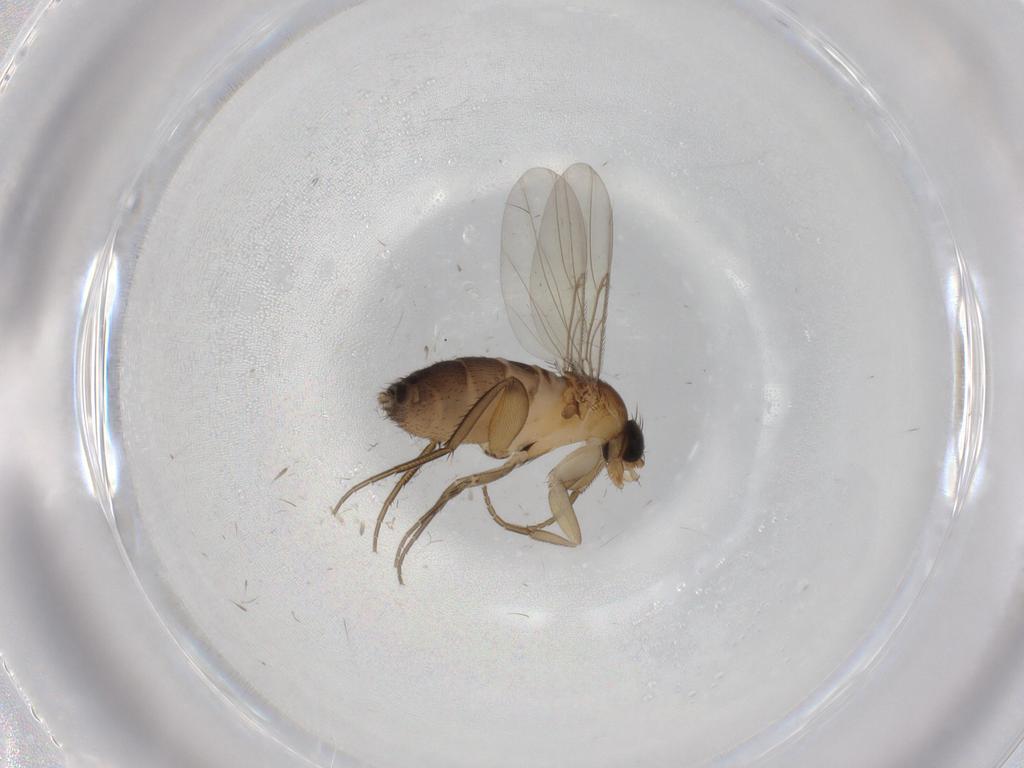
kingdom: Animalia
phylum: Arthropoda
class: Insecta
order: Diptera
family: Phoridae
